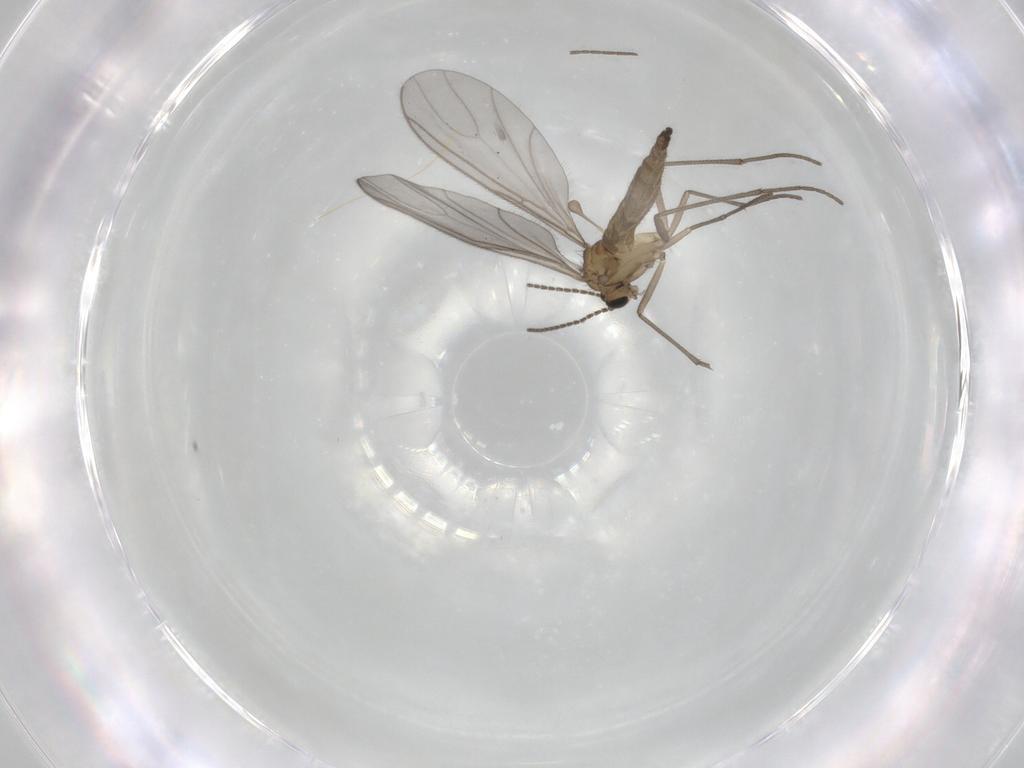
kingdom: Animalia
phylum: Arthropoda
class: Insecta
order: Diptera
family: Sciaridae
